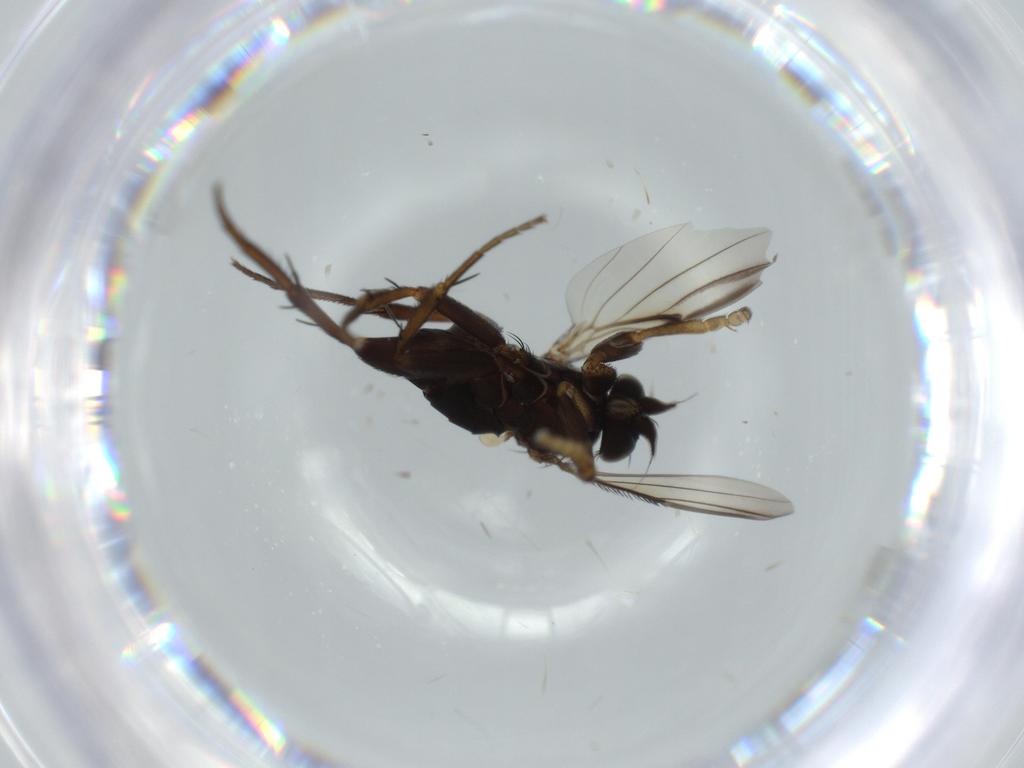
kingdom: Animalia
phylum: Arthropoda
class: Insecta
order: Diptera
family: Phoridae
